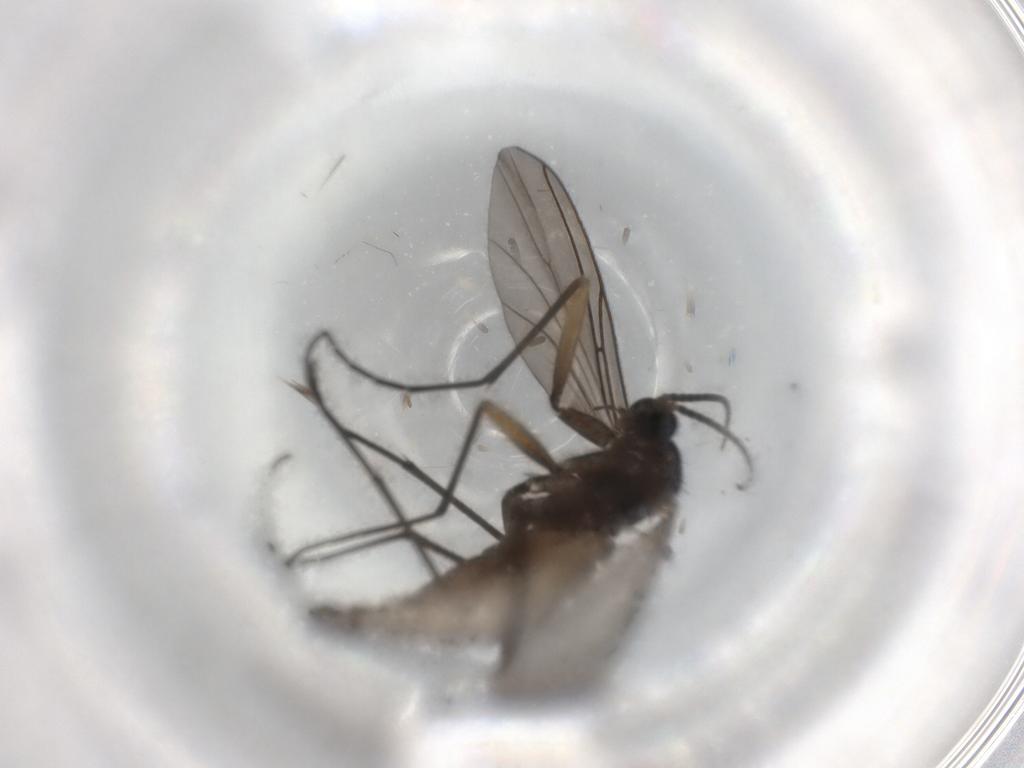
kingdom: Animalia
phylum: Arthropoda
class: Insecta
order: Diptera
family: Sciaridae
